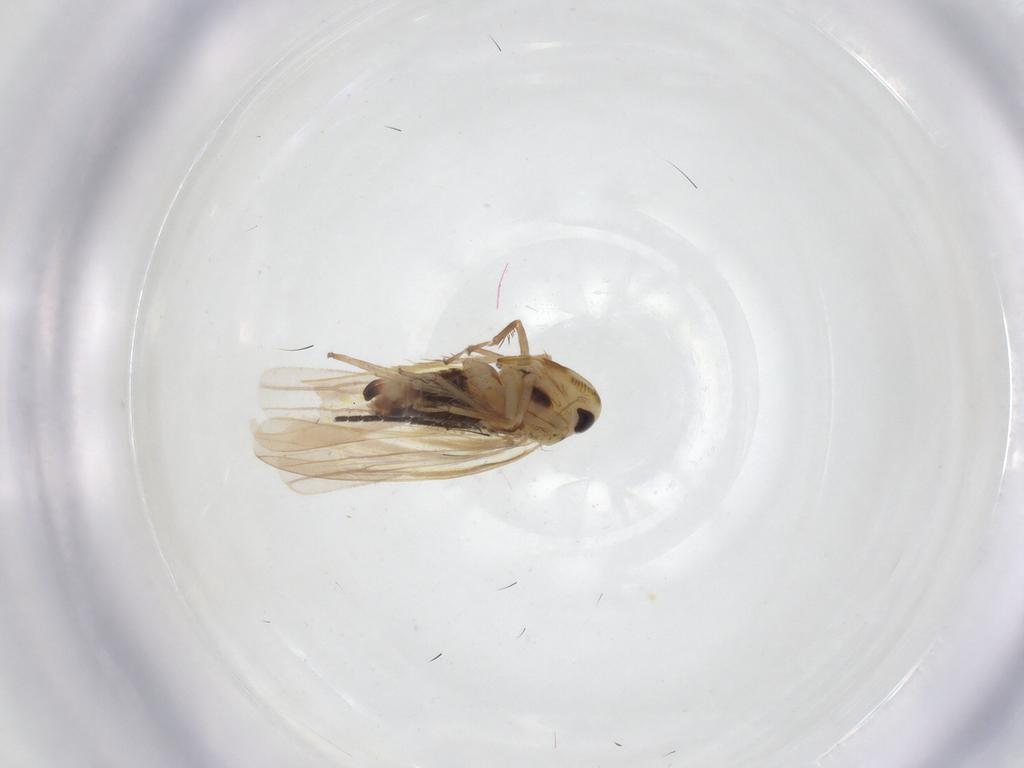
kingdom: Animalia
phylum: Arthropoda
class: Insecta
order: Hemiptera
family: Cicadellidae
